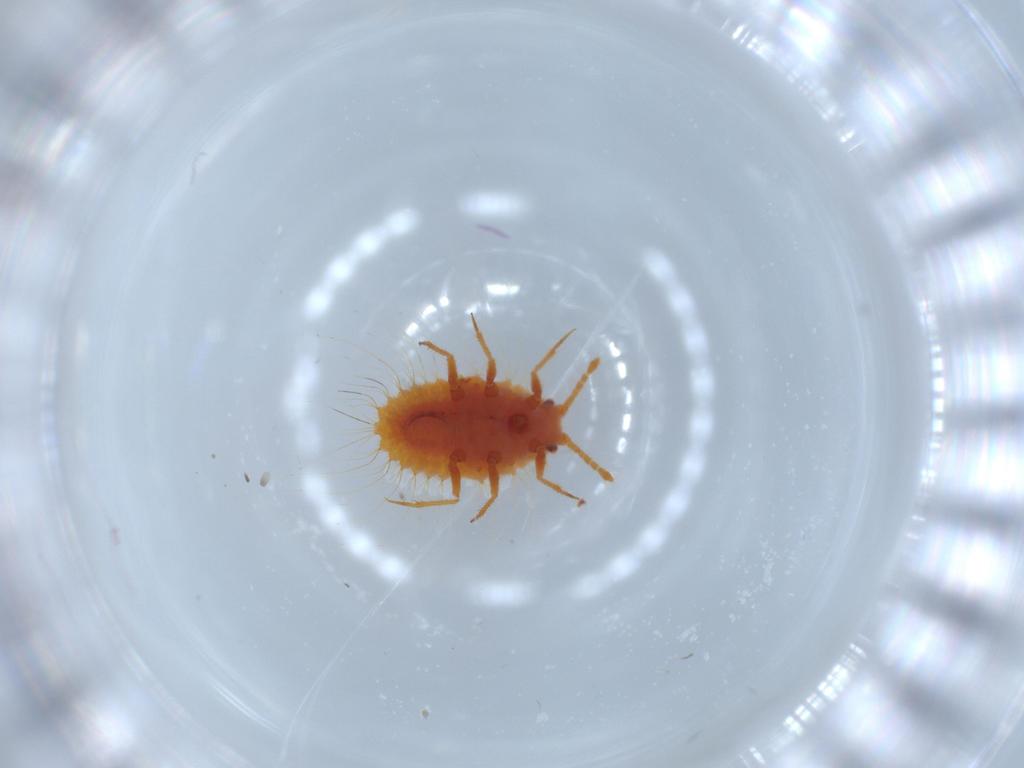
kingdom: Animalia
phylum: Arthropoda
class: Insecta
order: Hemiptera
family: Coccoidea_incertae_sedis
